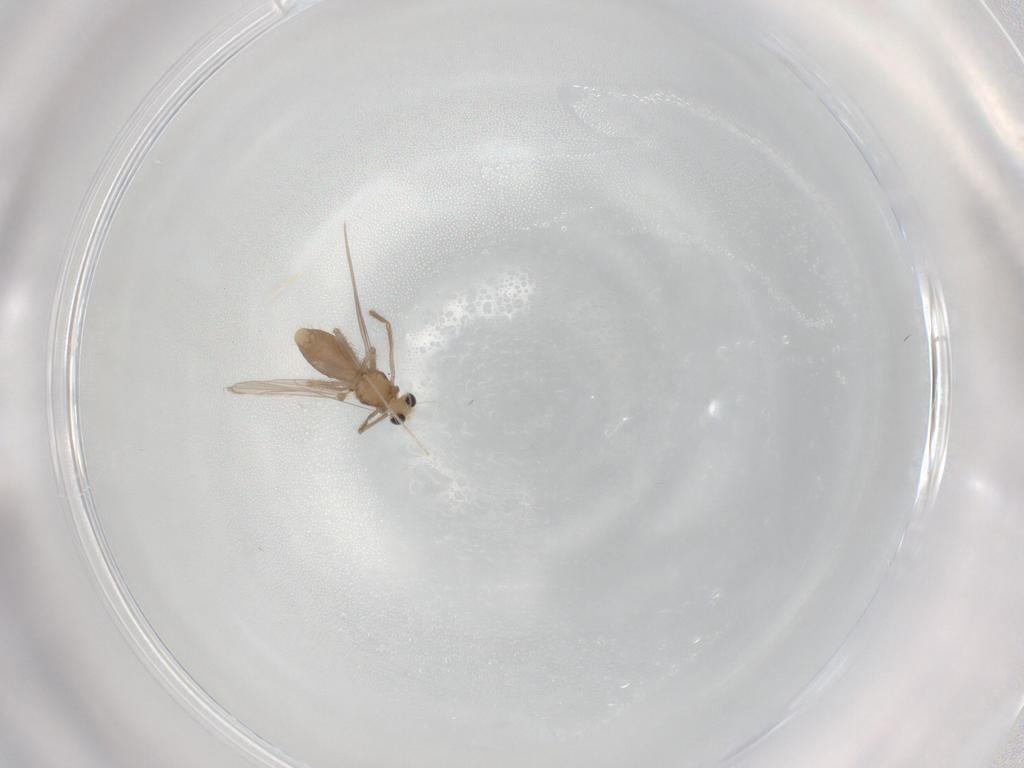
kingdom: Animalia
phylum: Arthropoda
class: Insecta
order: Diptera
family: Chironomidae
